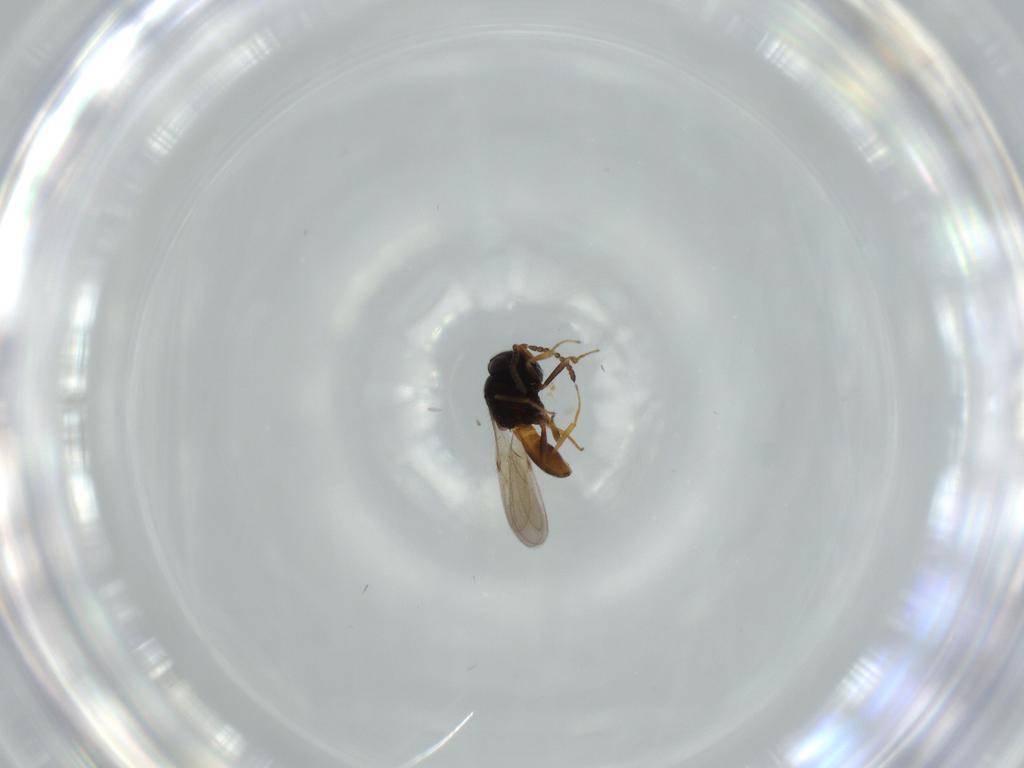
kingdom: Animalia
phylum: Arthropoda
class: Insecta
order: Hymenoptera
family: Scelionidae
